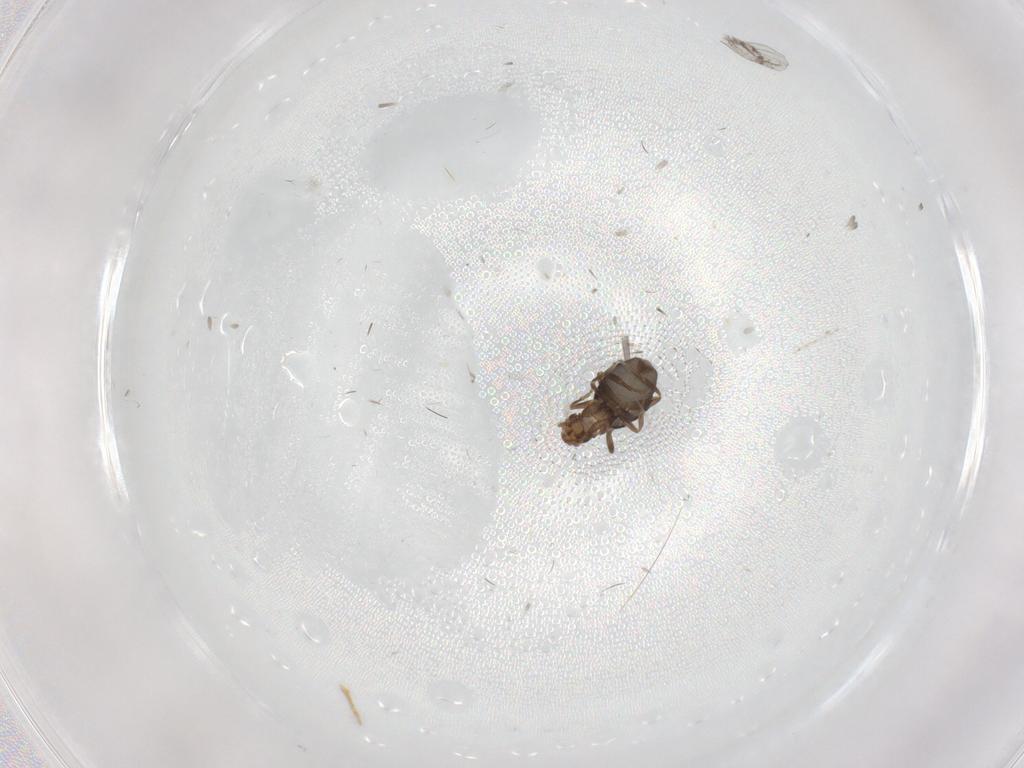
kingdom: Animalia
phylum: Arthropoda
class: Insecta
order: Diptera
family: Phoridae
